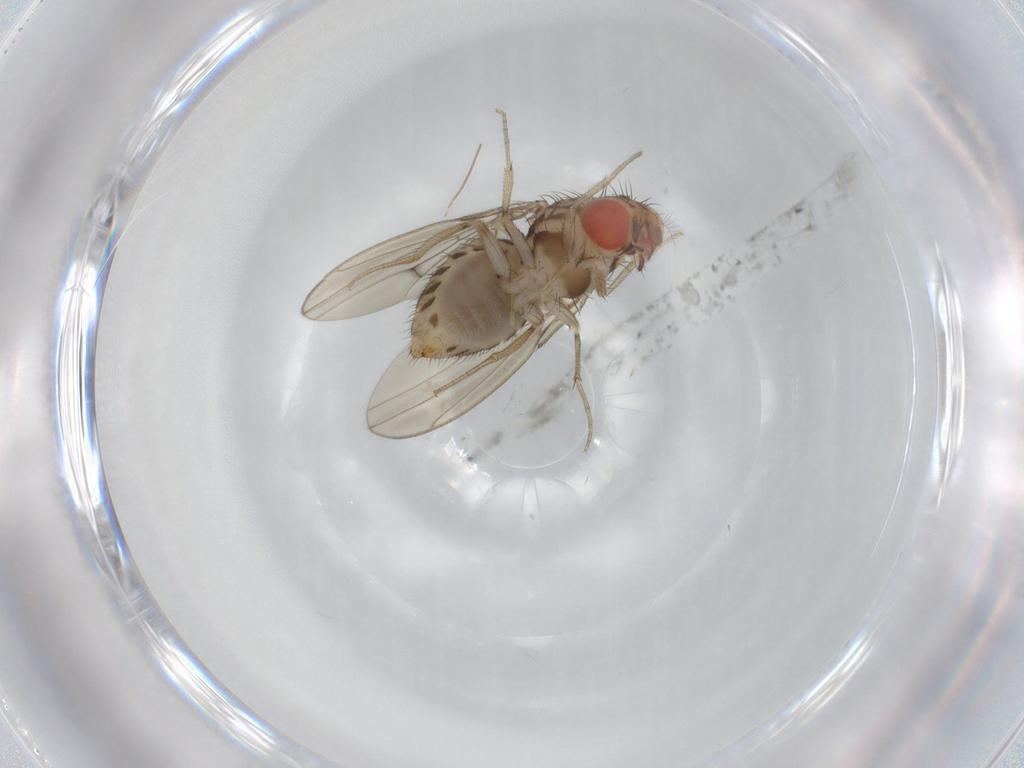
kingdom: Animalia
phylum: Arthropoda
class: Insecta
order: Diptera
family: Drosophilidae
